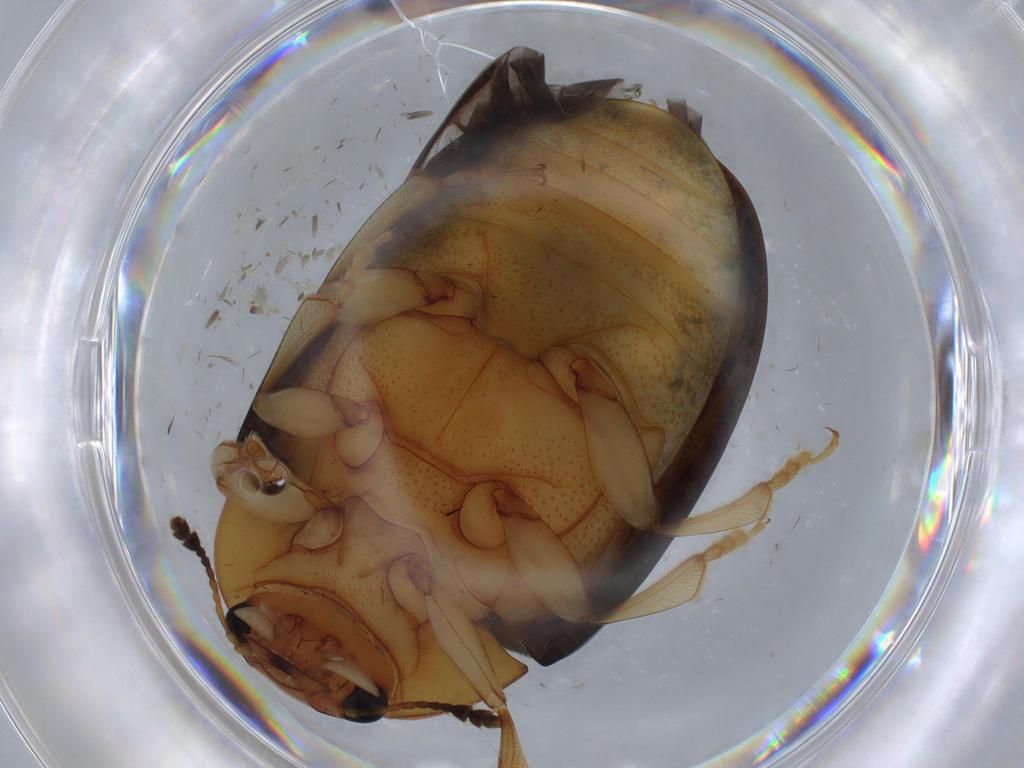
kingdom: Animalia
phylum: Arthropoda
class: Insecta
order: Coleoptera
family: Erotylidae
